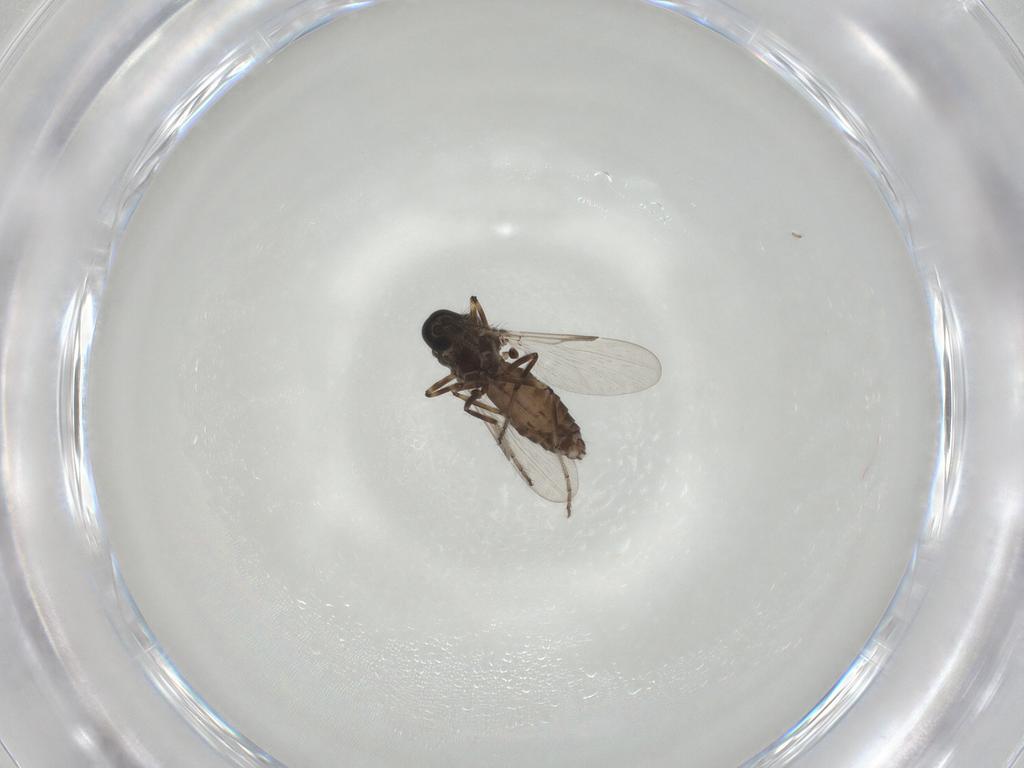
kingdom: Animalia
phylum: Arthropoda
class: Insecta
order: Diptera
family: Ceratopogonidae
